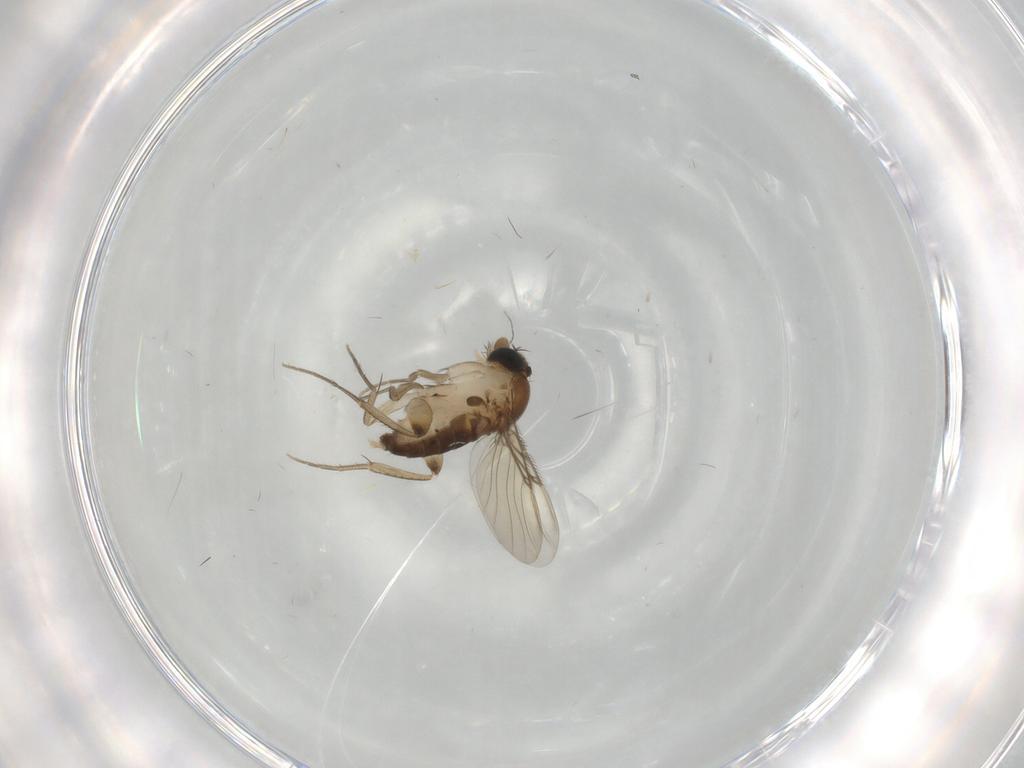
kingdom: Animalia
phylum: Arthropoda
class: Insecta
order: Diptera
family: Phoridae
